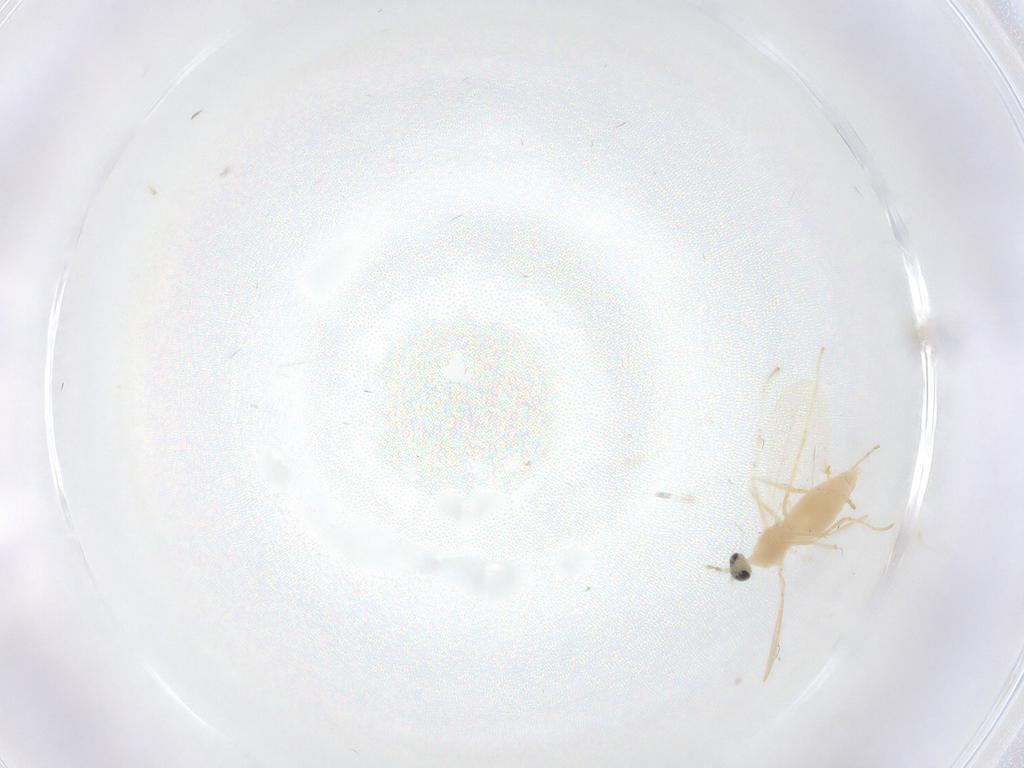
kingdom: Animalia
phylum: Arthropoda
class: Insecta
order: Diptera
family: Cecidomyiidae
